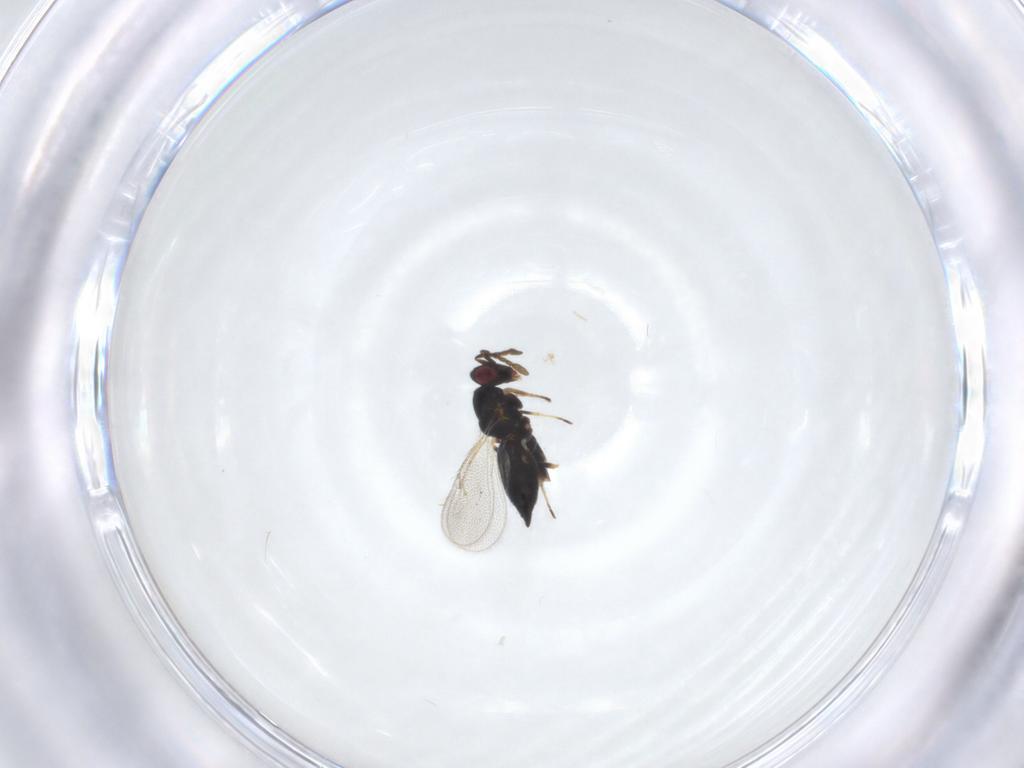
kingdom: Animalia
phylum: Arthropoda
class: Insecta
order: Hymenoptera
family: Eulophidae
